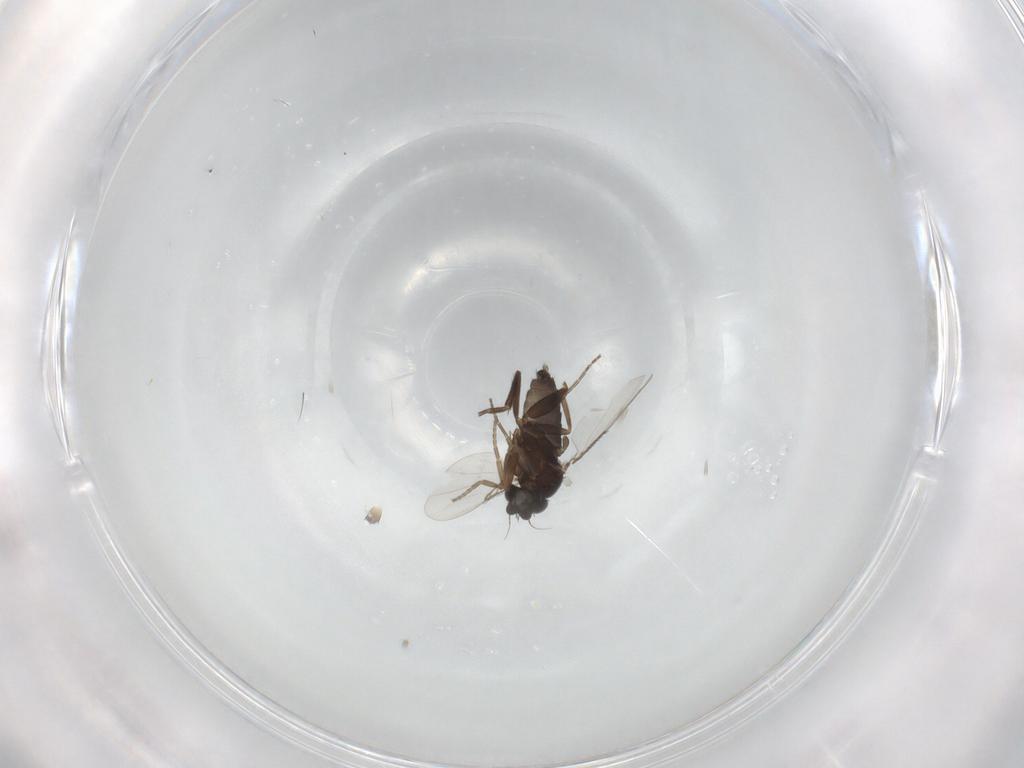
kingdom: Animalia
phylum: Arthropoda
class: Insecta
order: Diptera
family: Phoridae
